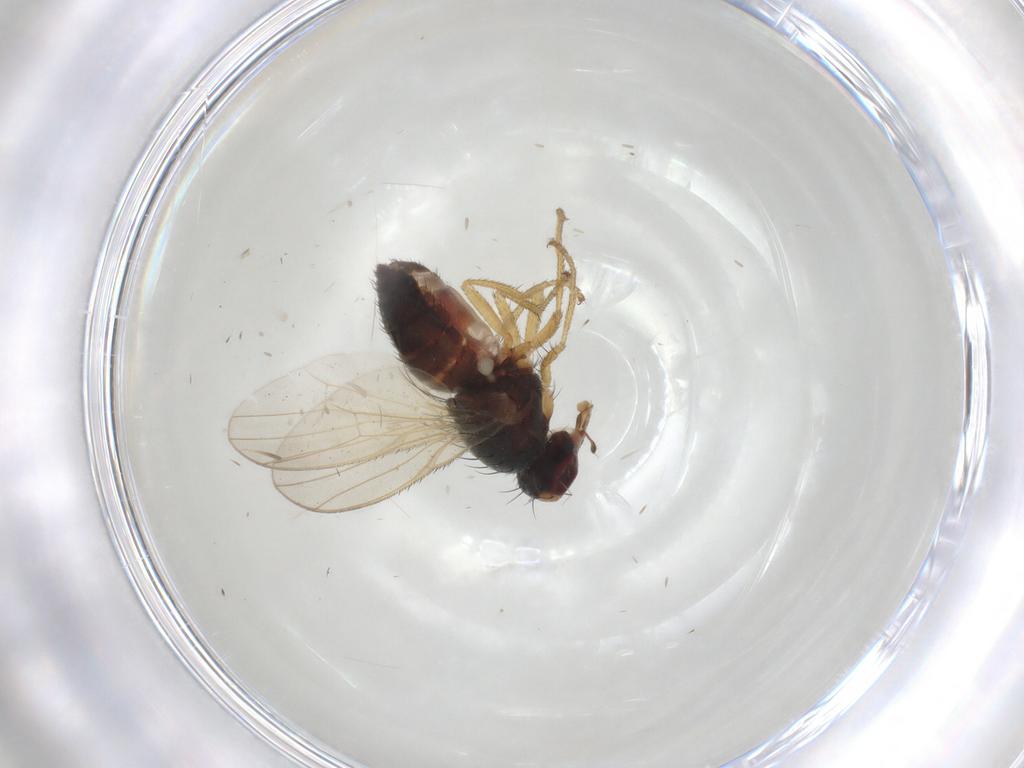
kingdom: Animalia
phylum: Arthropoda
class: Insecta
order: Diptera
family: Heleomyzidae
